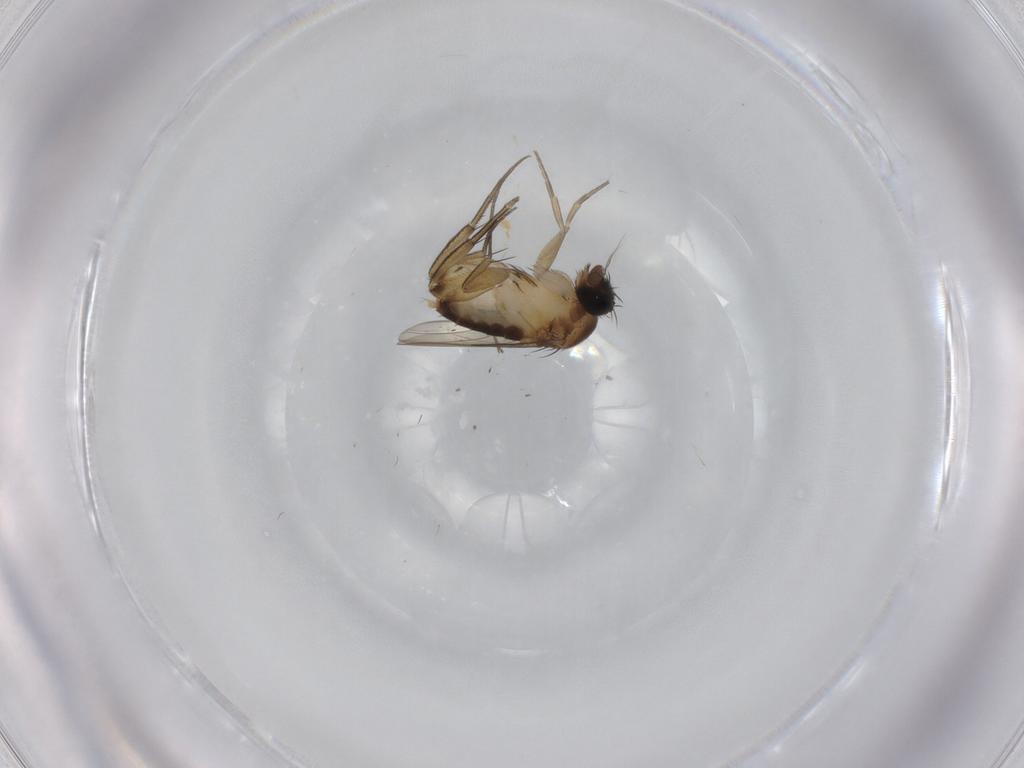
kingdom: Animalia
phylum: Arthropoda
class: Insecta
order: Diptera
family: Phoridae
